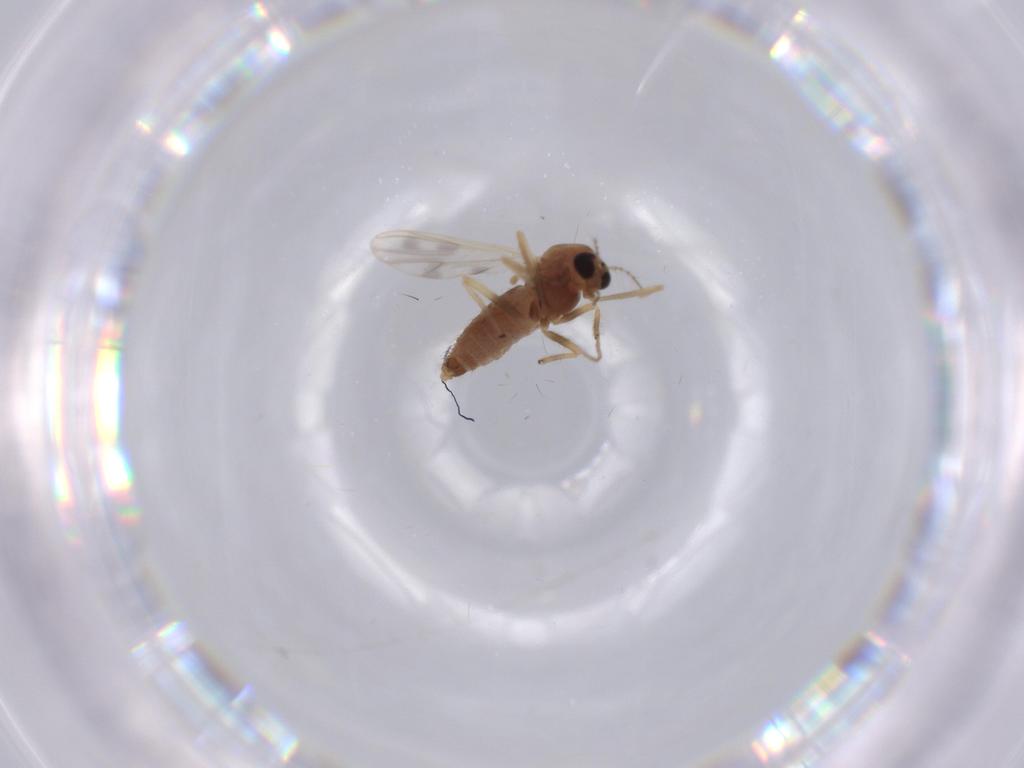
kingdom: Animalia
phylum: Arthropoda
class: Insecta
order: Diptera
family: Chironomidae
